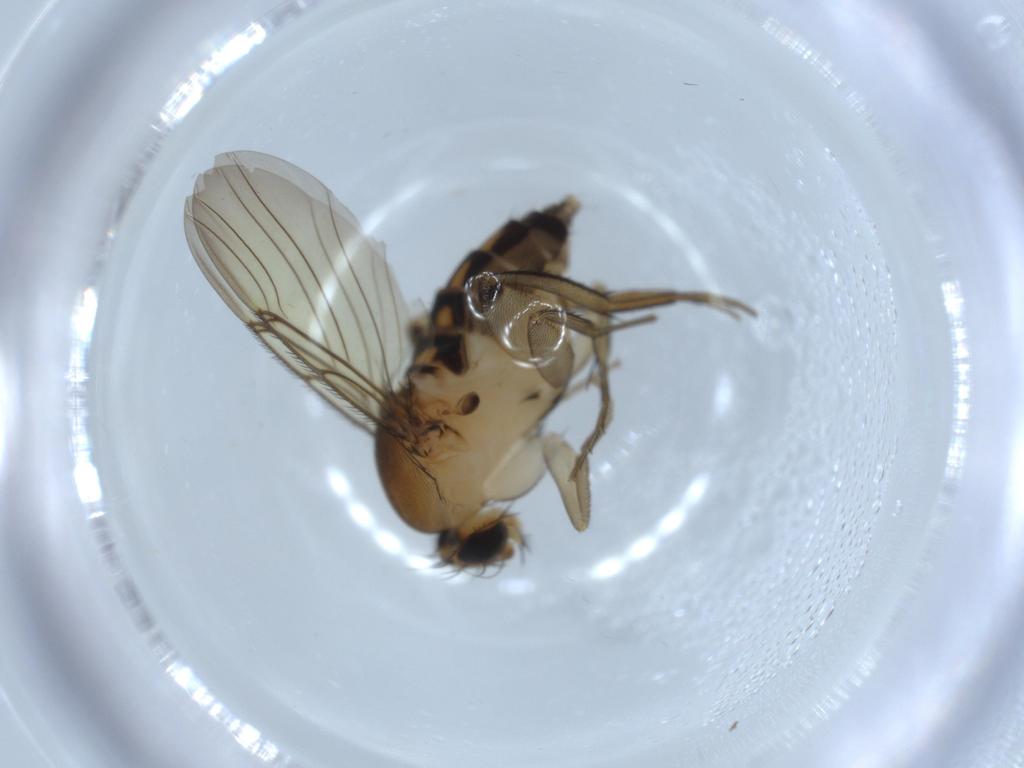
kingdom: Animalia
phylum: Arthropoda
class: Insecta
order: Diptera
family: Phoridae
